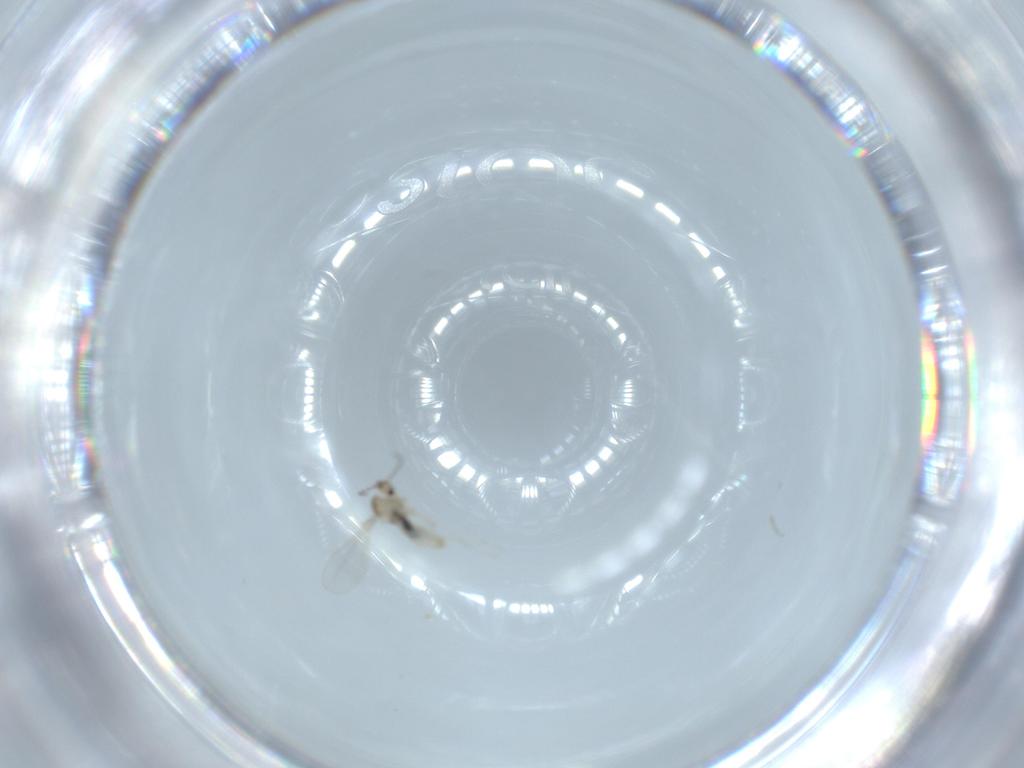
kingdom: Animalia
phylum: Arthropoda
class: Insecta
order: Diptera
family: Cecidomyiidae
